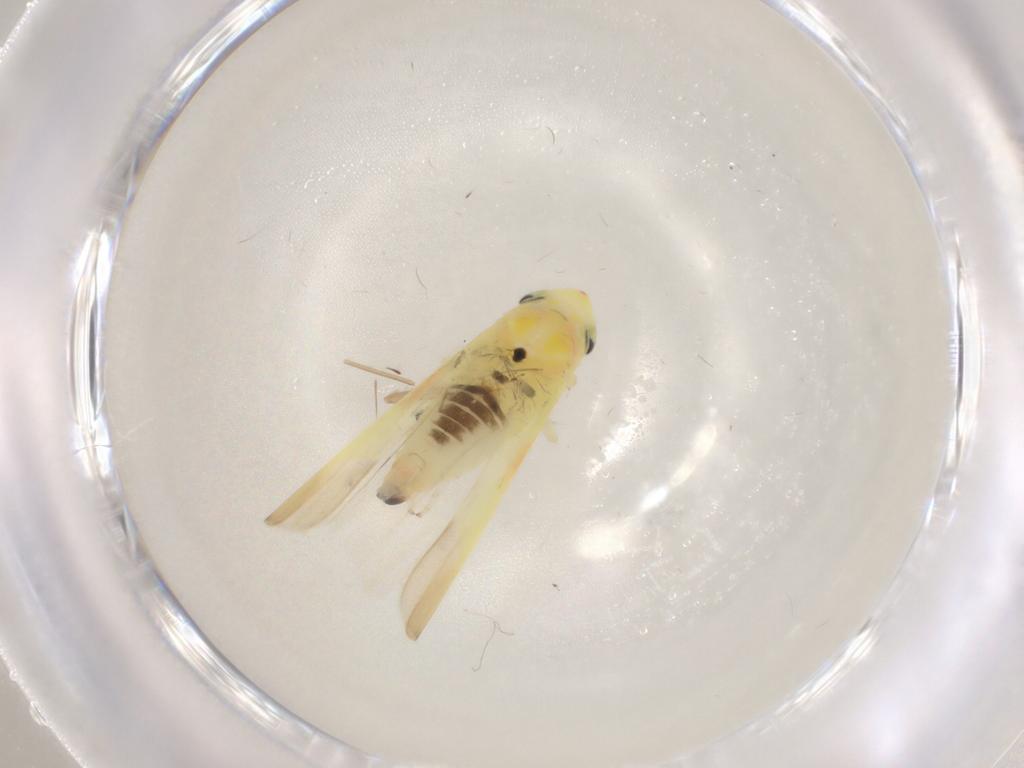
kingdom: Animalia
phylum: Arthropoda
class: Insecta
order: Hemiptera
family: Cicadellidae
